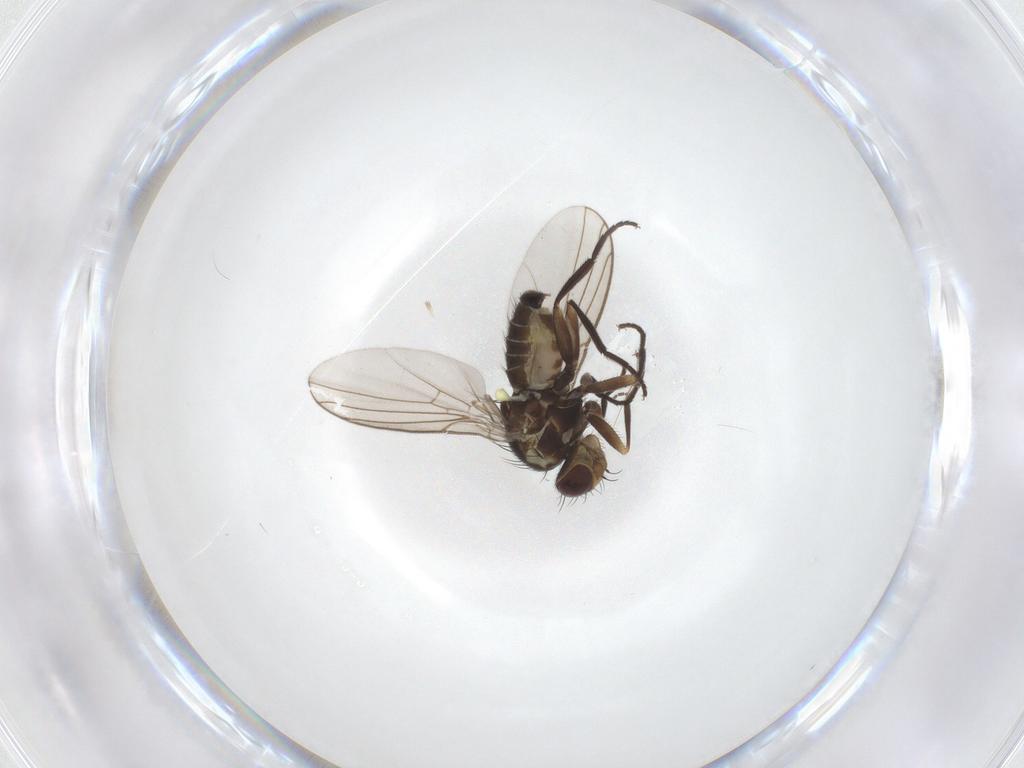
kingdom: Animalia
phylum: Arthropoda
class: Insecta
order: Diptera
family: Agromyzidae
